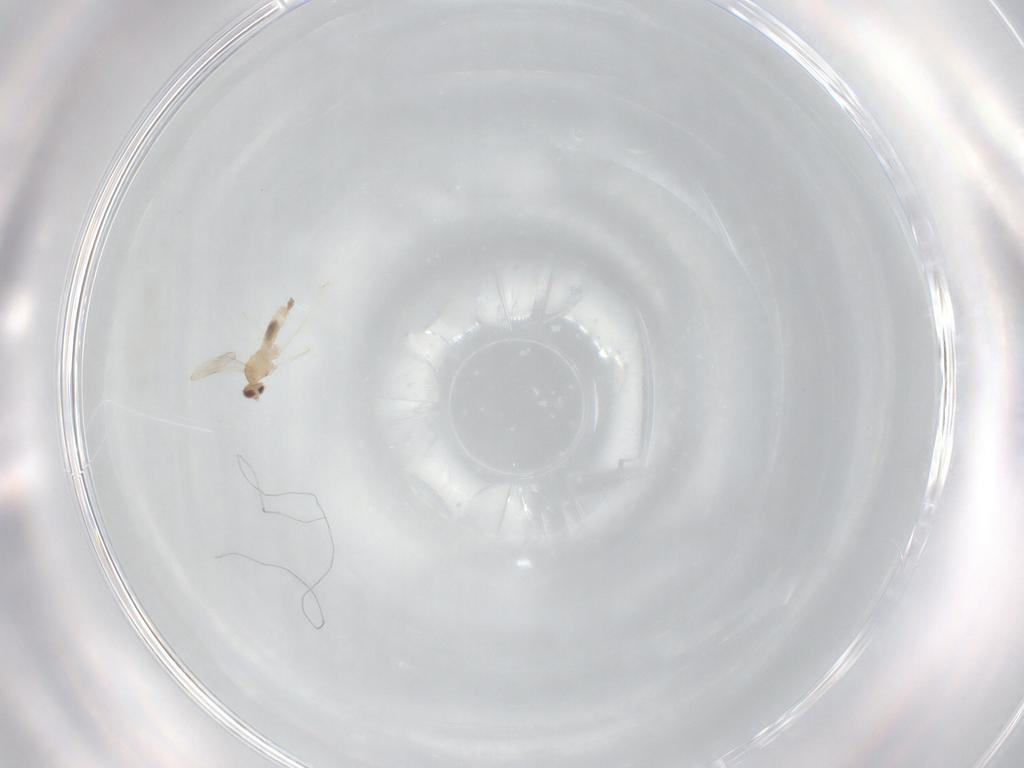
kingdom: Animalia
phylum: Arthropoda
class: Insecta
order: Diptera
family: Cecidomyiidae
